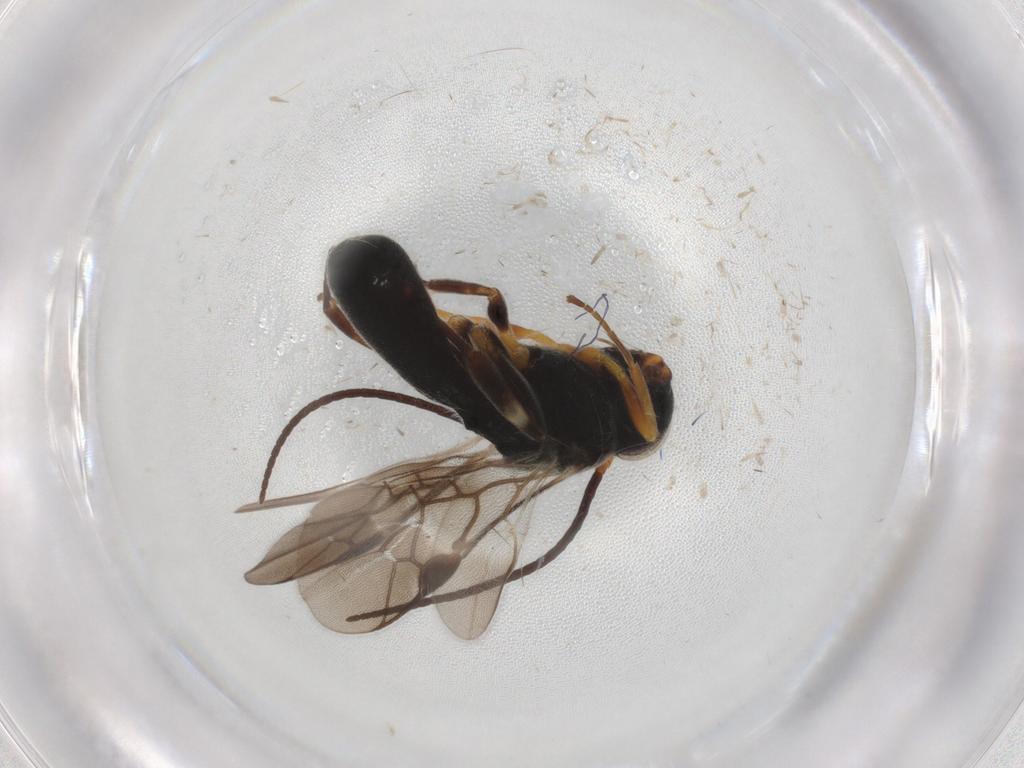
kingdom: Animalia
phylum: Arthropoda
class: Insecta
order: Hymenoptera
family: Braconidae
